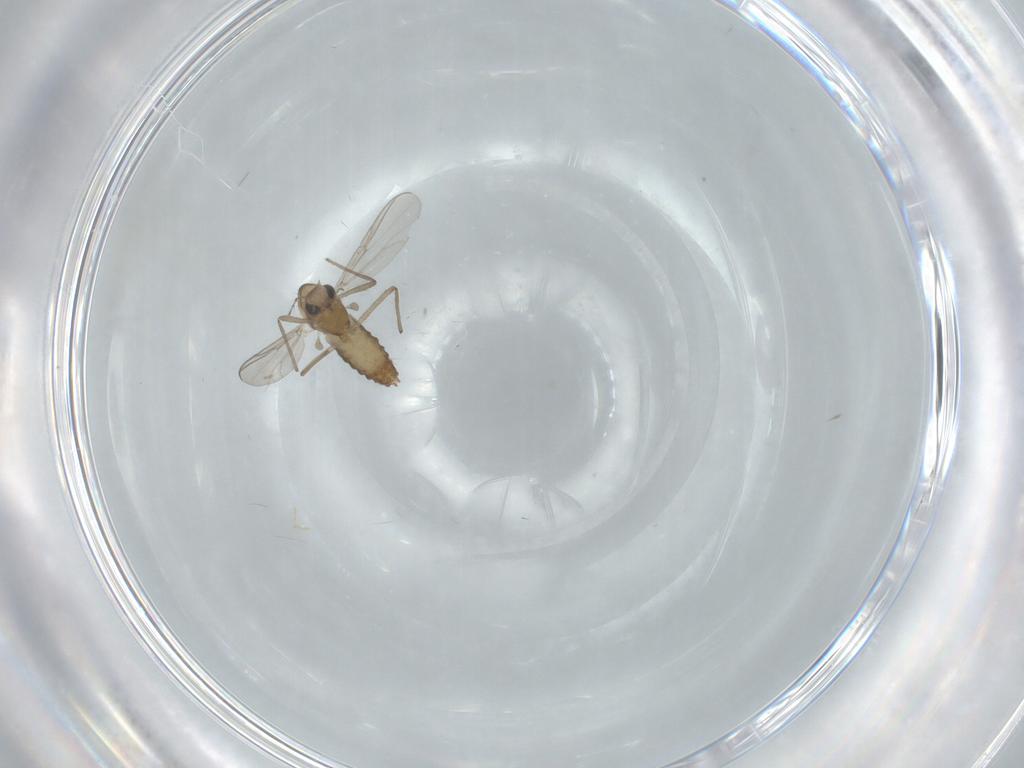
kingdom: Animalia
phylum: Arthropoda
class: Insecta
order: Diptera
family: Chironomidae
